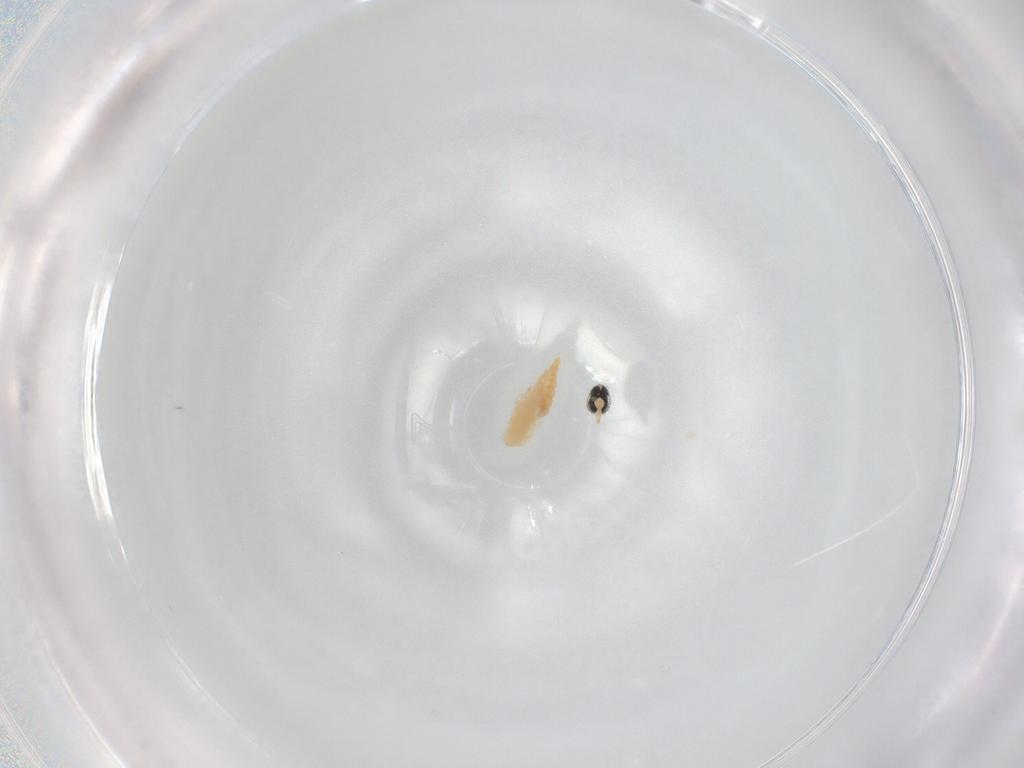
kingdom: Animalia
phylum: Arthropoda
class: Insecta
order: Diptera
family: Cecidomyiidae
